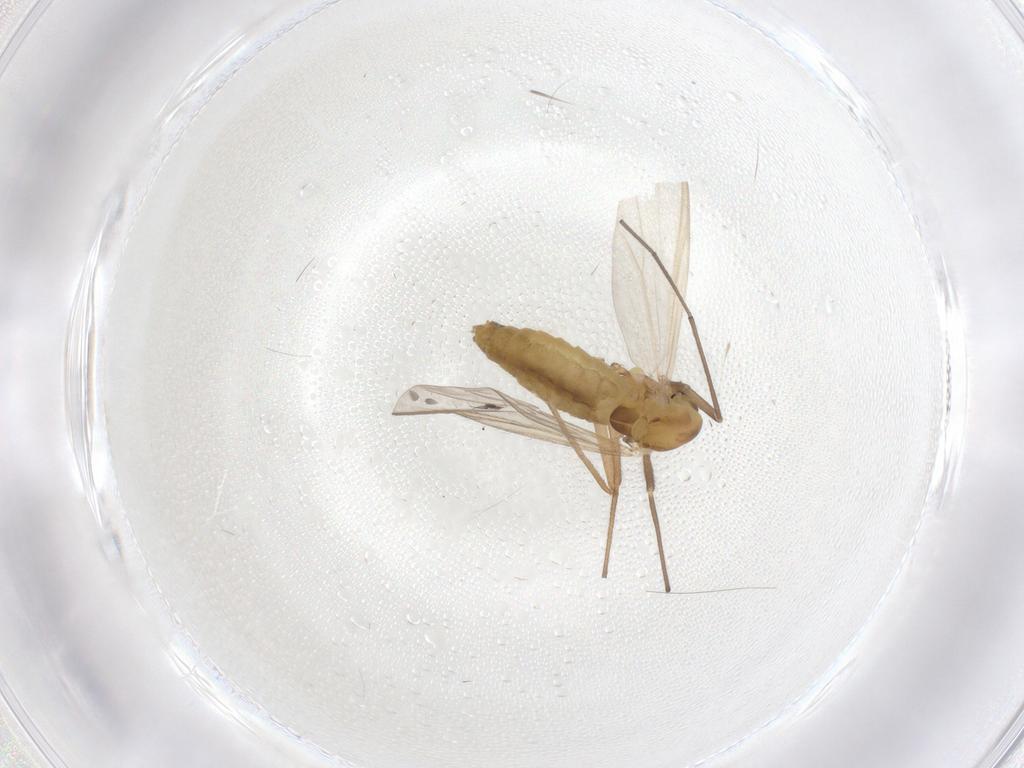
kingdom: Animalia
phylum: Arthropoda
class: Insecta
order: Diptera
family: Chironomidae
